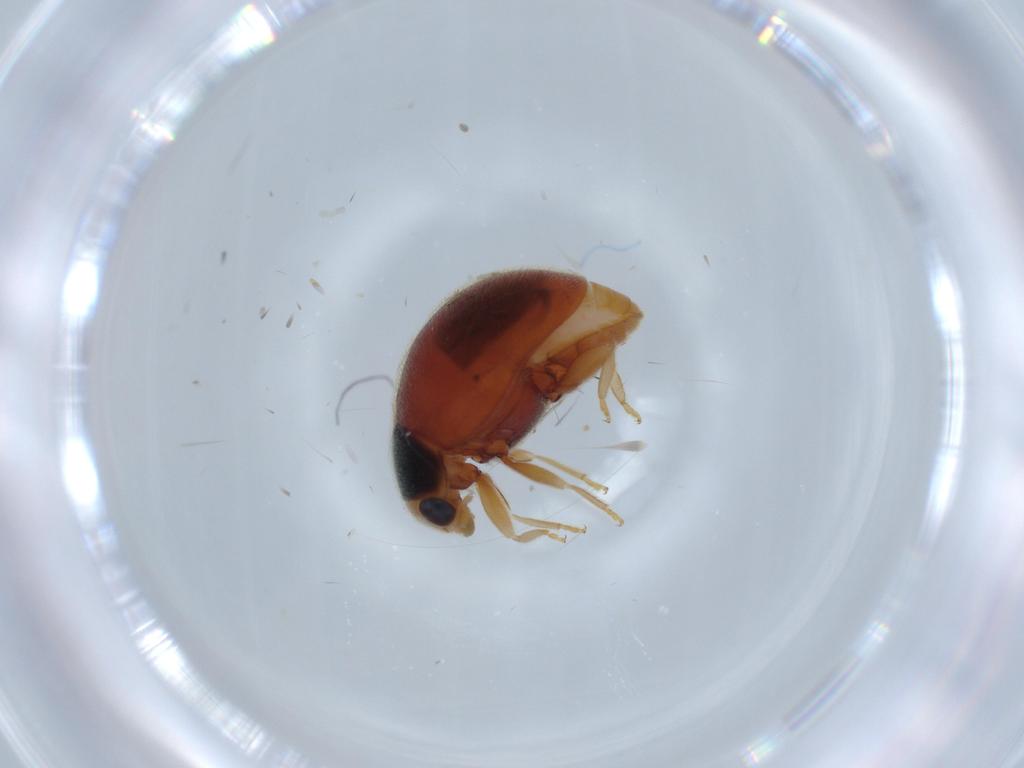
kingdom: Animalia
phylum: Arthropoda
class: Insecta
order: Coleoptera
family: Coccinellidae
